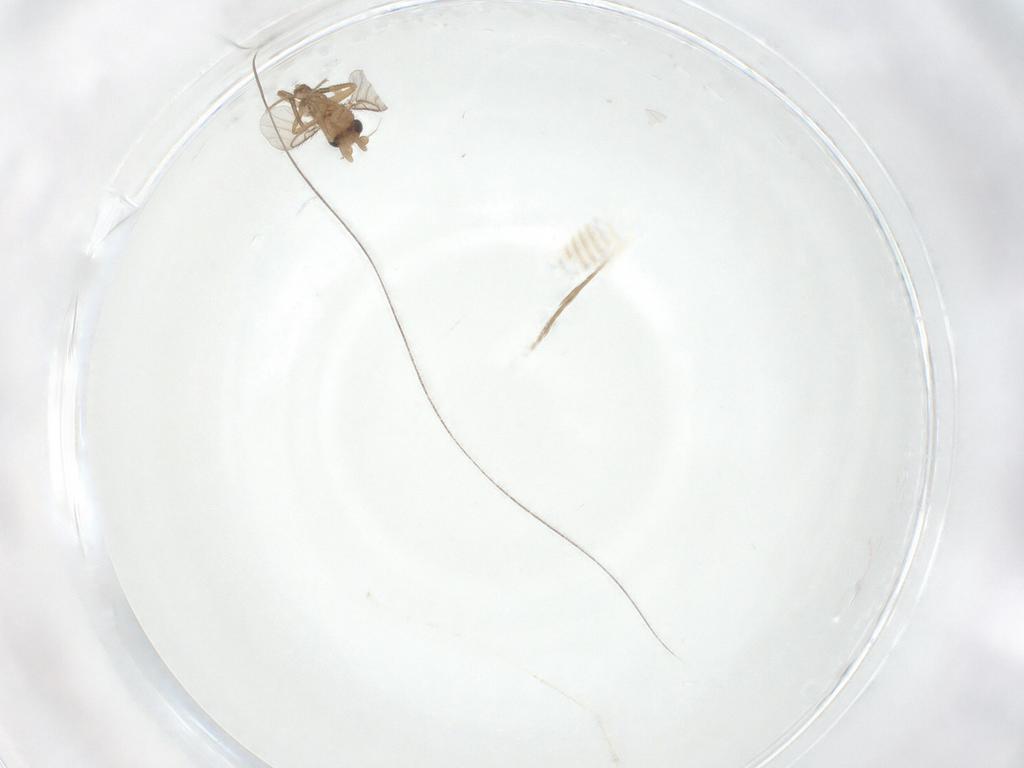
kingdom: Animalia
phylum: Arthropoda
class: Insecta
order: Diptera
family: Phoridae
